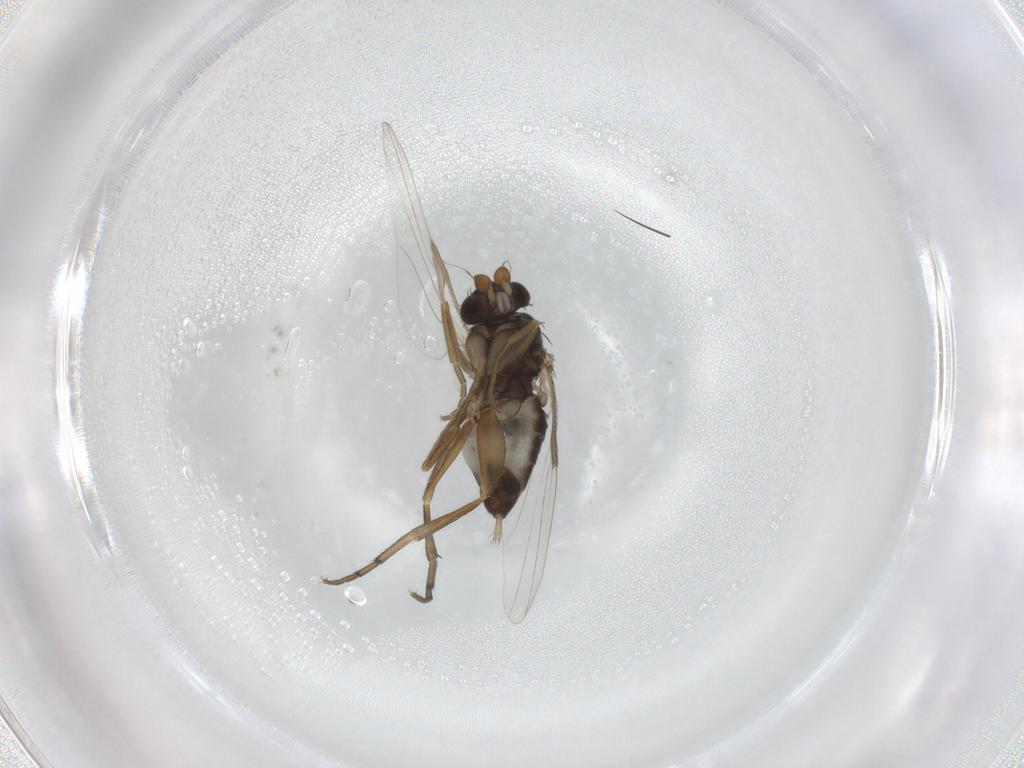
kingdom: Animalia
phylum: Arthropoda
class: Insecta
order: Diptera
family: Phoridae
